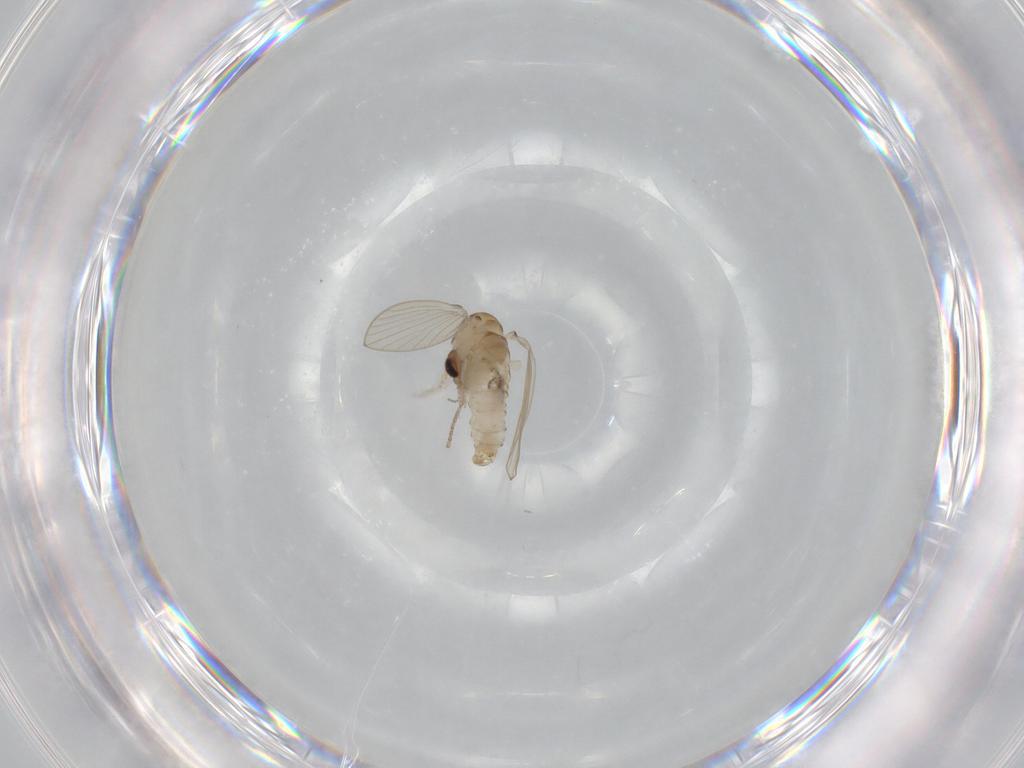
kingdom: Animalia
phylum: Arthropoda
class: Insecta
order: Diptera
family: Psychodidae
